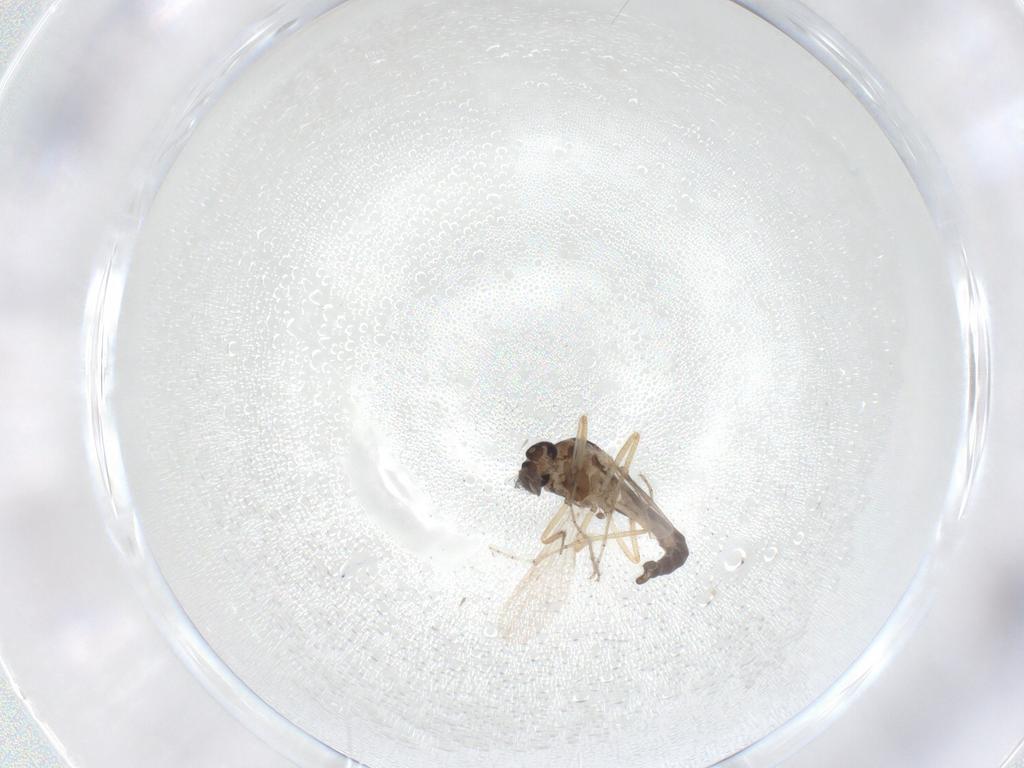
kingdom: Animalia
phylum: Arthropoda
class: Insecta
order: Diptera
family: Ceratopogonidae
